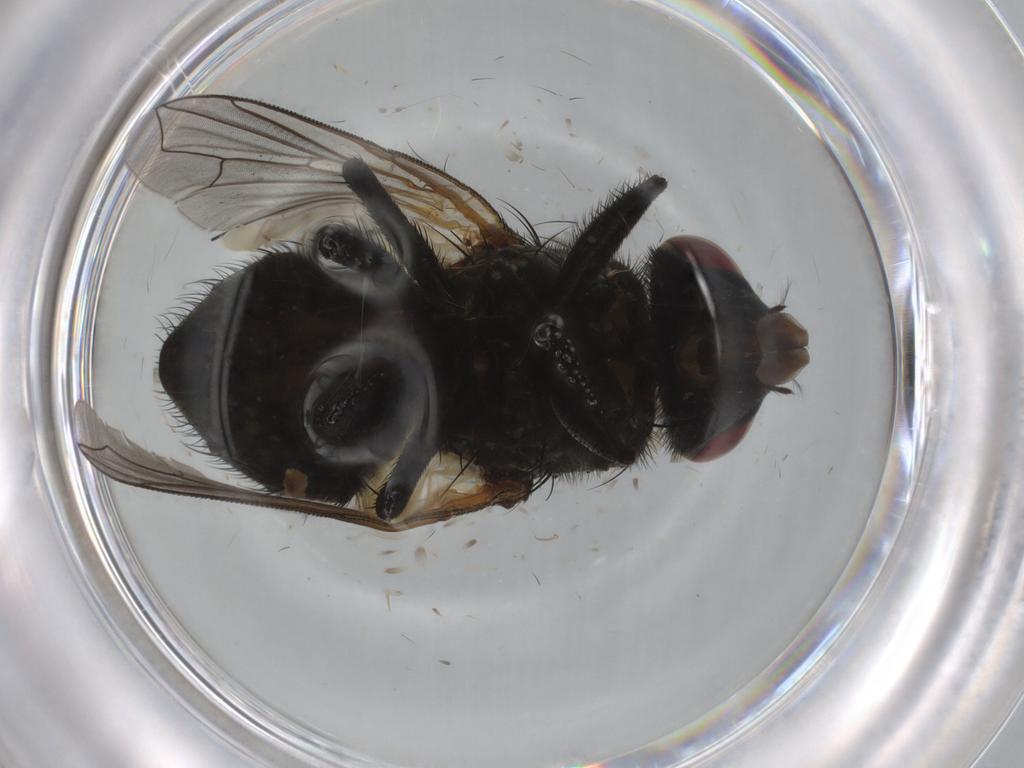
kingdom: Animalia
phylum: Arthropoda
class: Insecta
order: Diptera
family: Muscidae
